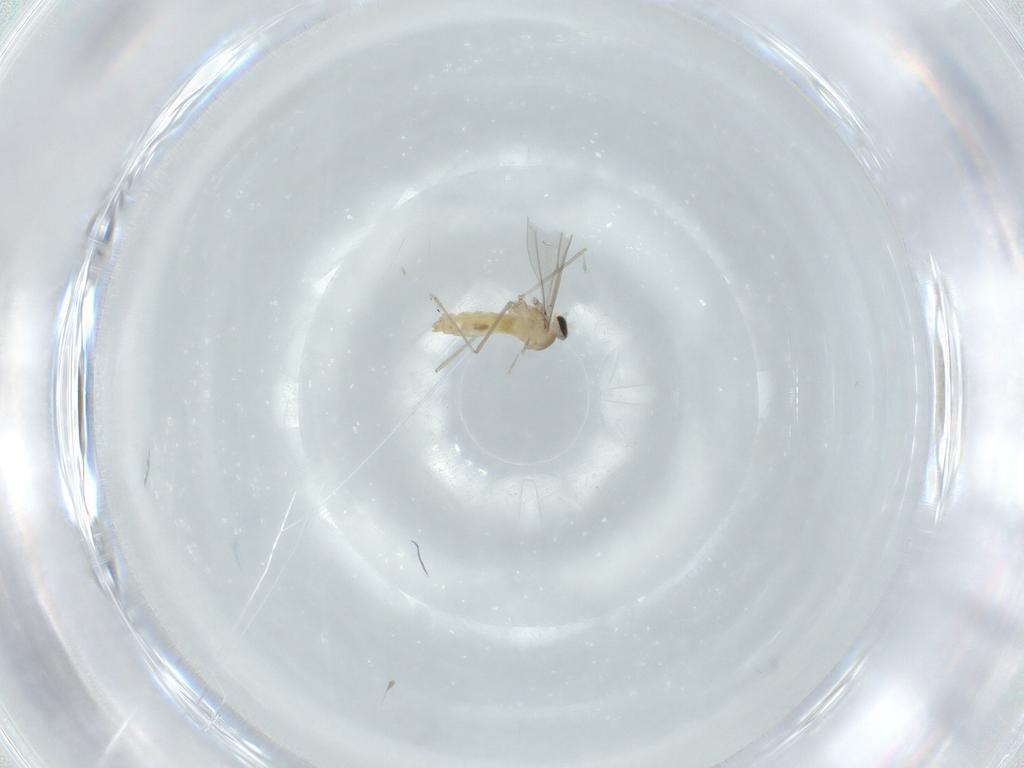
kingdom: Animalia
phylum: Arthropoda
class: Insecta
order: Diptera
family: Cecidomyiidae
